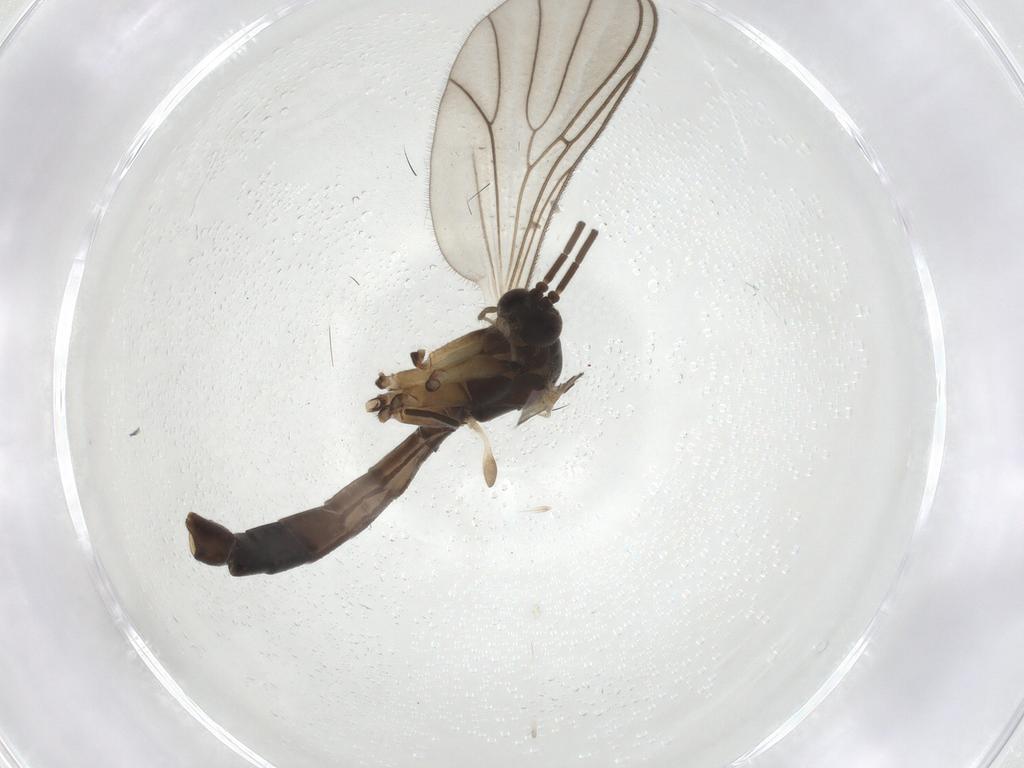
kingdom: Animalia
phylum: Arthropoda
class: Insecta
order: Diptera
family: Mycetophilidae
